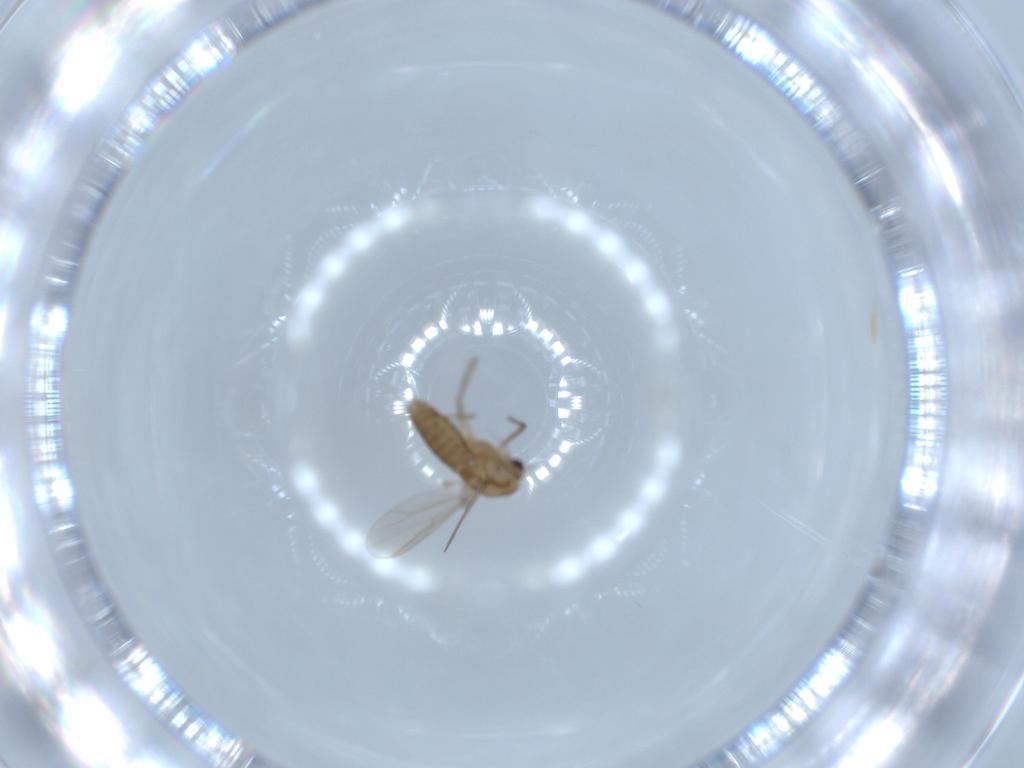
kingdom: Animalia
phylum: Arthropoda
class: Insecta
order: Diptera
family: Chironomidae
